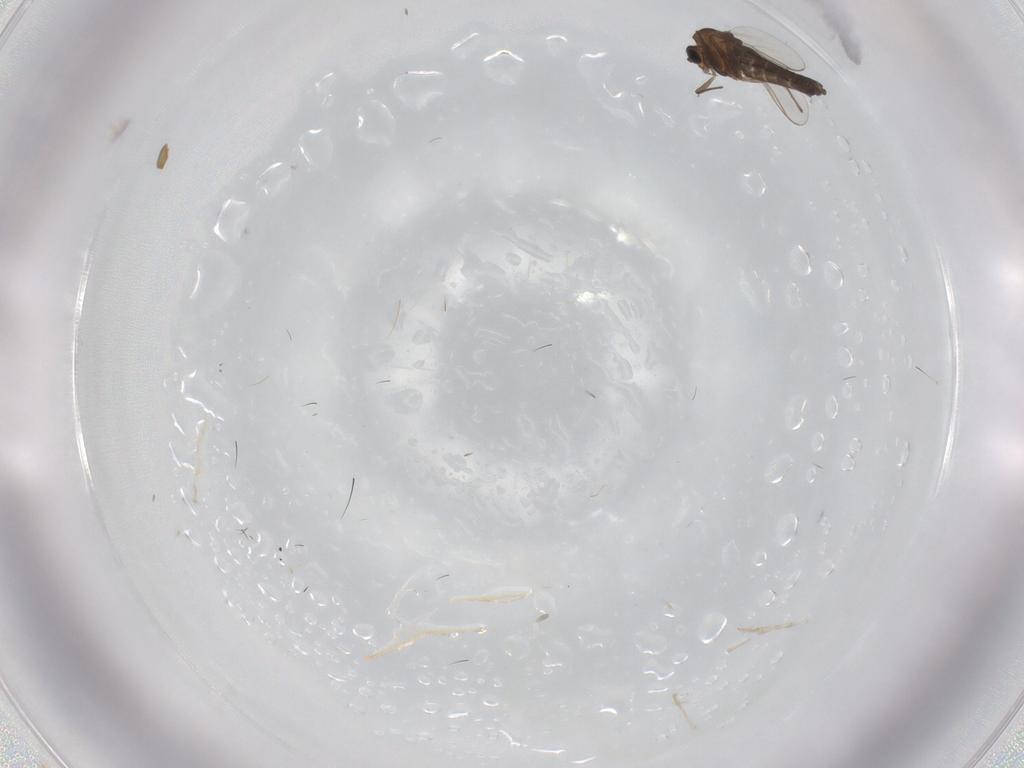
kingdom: Animalia
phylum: Arthropoda
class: Insecta
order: Diptera
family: Chironomidae
